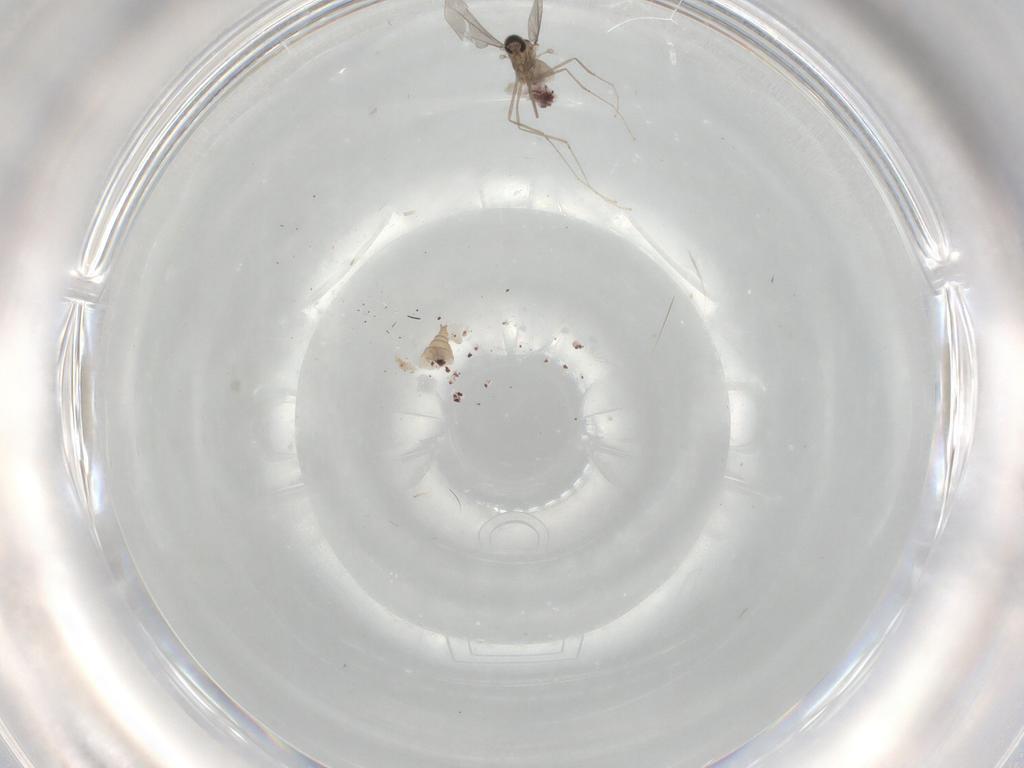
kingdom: Animalia
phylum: Arthropoda
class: Insecta
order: Diptera
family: Cecidomyiidae
